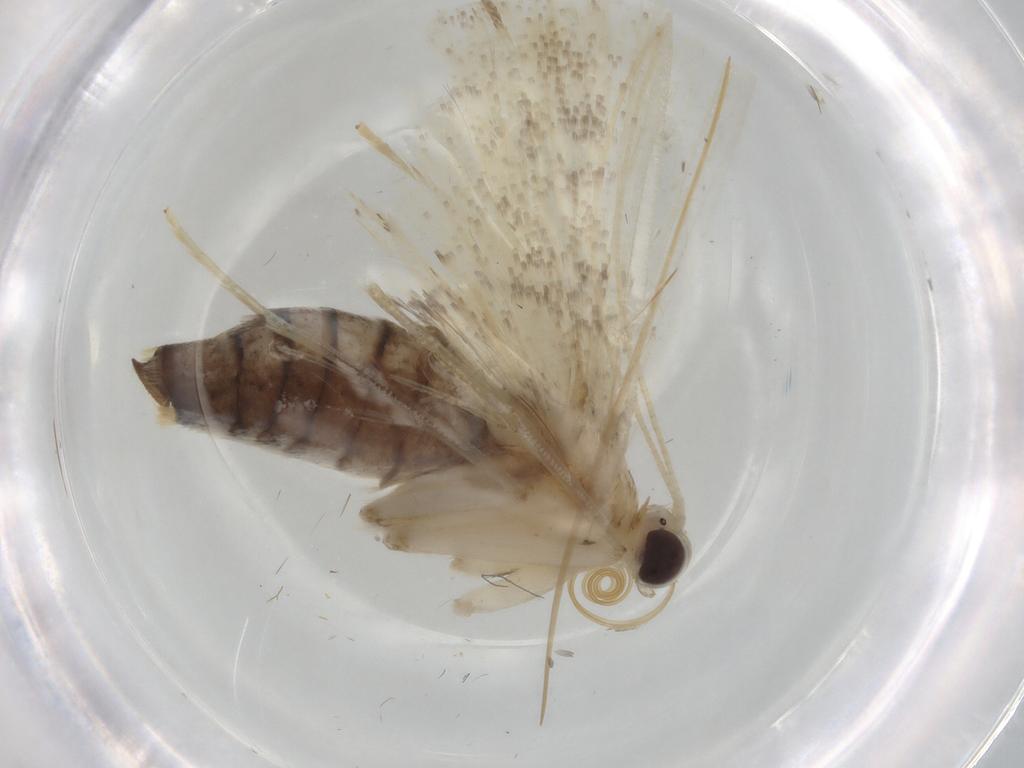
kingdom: Animalia
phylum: Arthropoda
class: Insecta
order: Lepidoptera
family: Crambidae
